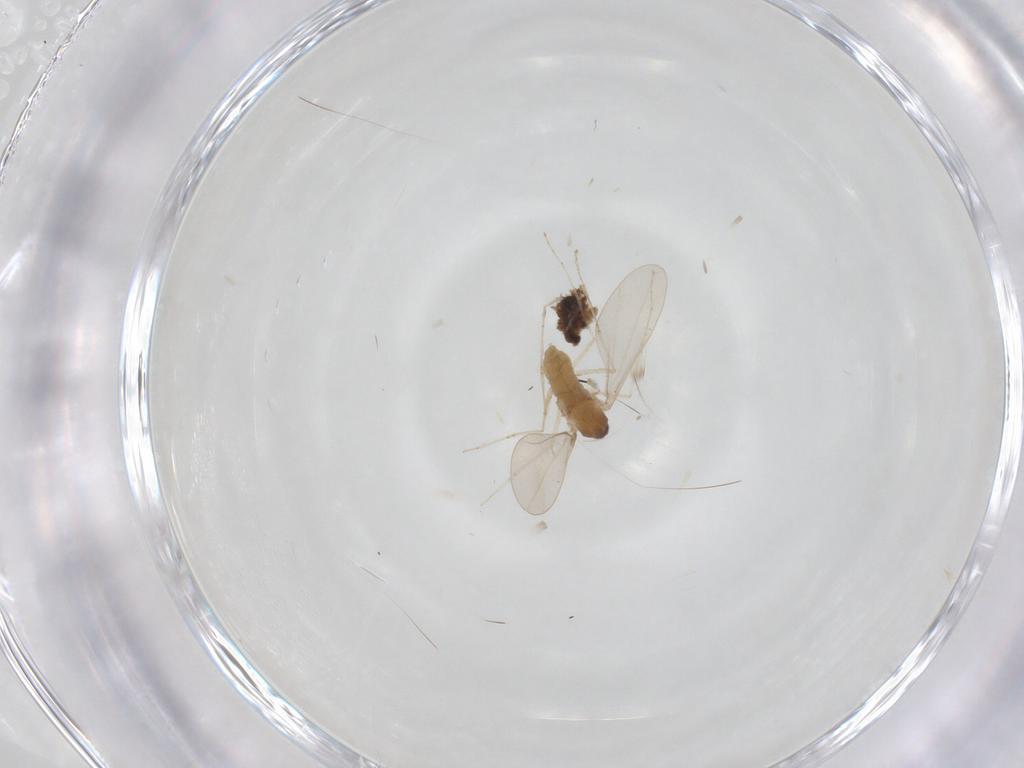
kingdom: Animalia
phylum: Arthropoda
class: Insecta
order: Diptera
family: Cecidomyiidae
